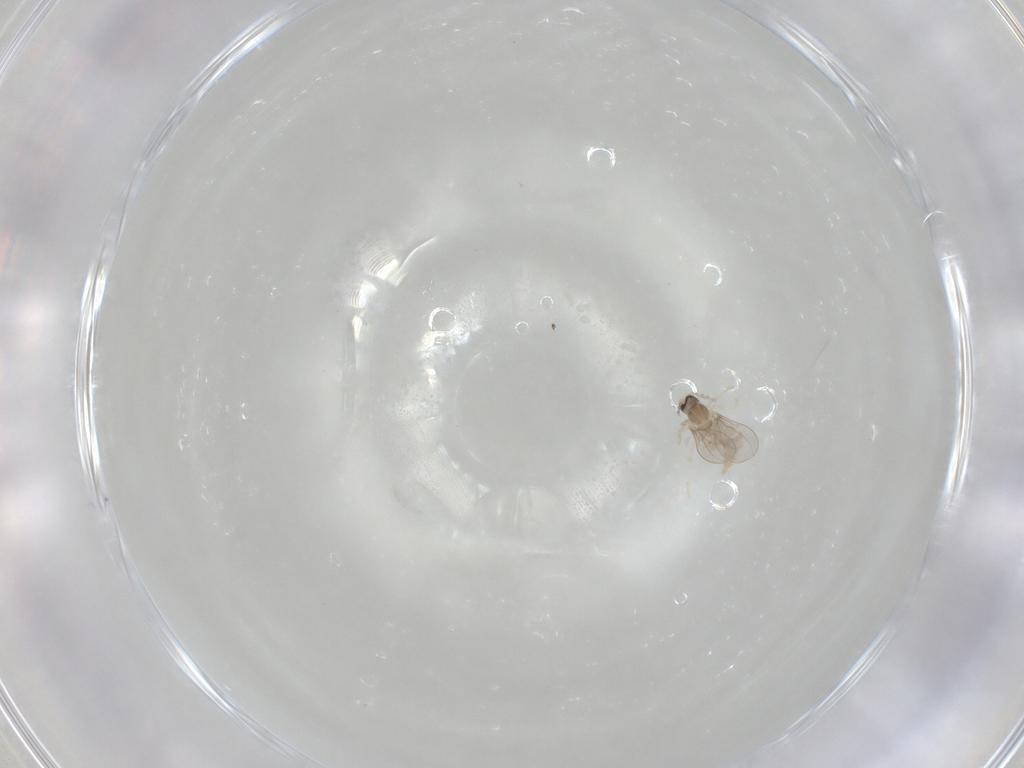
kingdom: Animalia
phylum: Arthropoda
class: Insecta
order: Diptera
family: Cecidomyiidae
